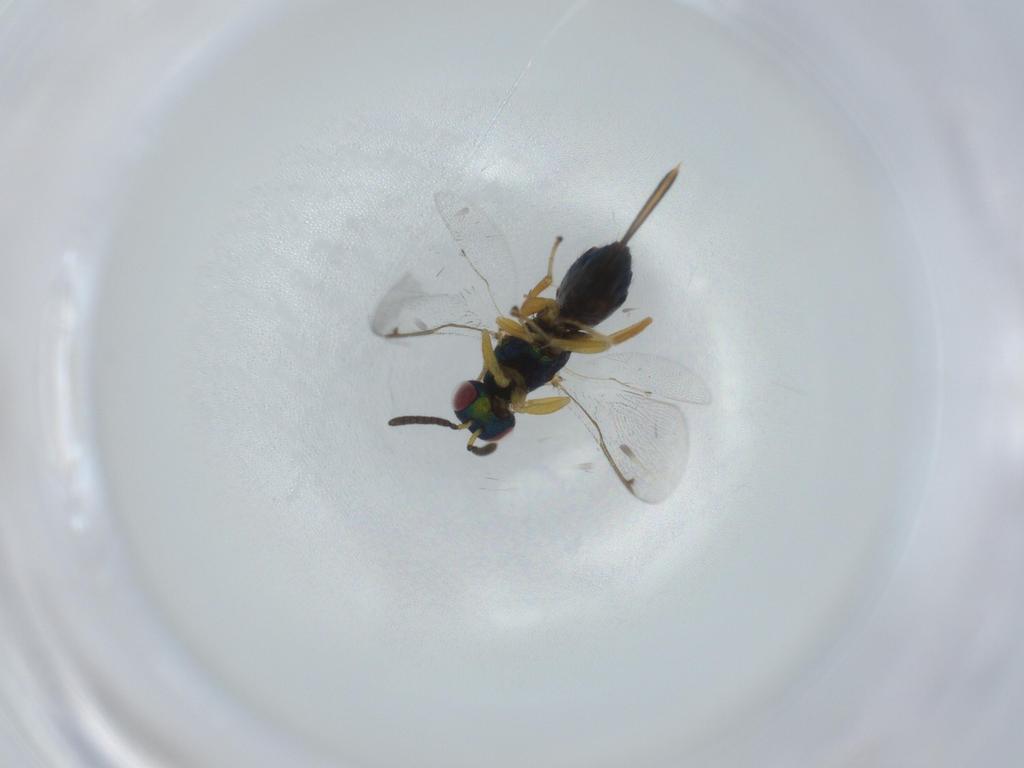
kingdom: Animalia
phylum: Arthropoda
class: Insecta
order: Hymenoptera
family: Torymidae
